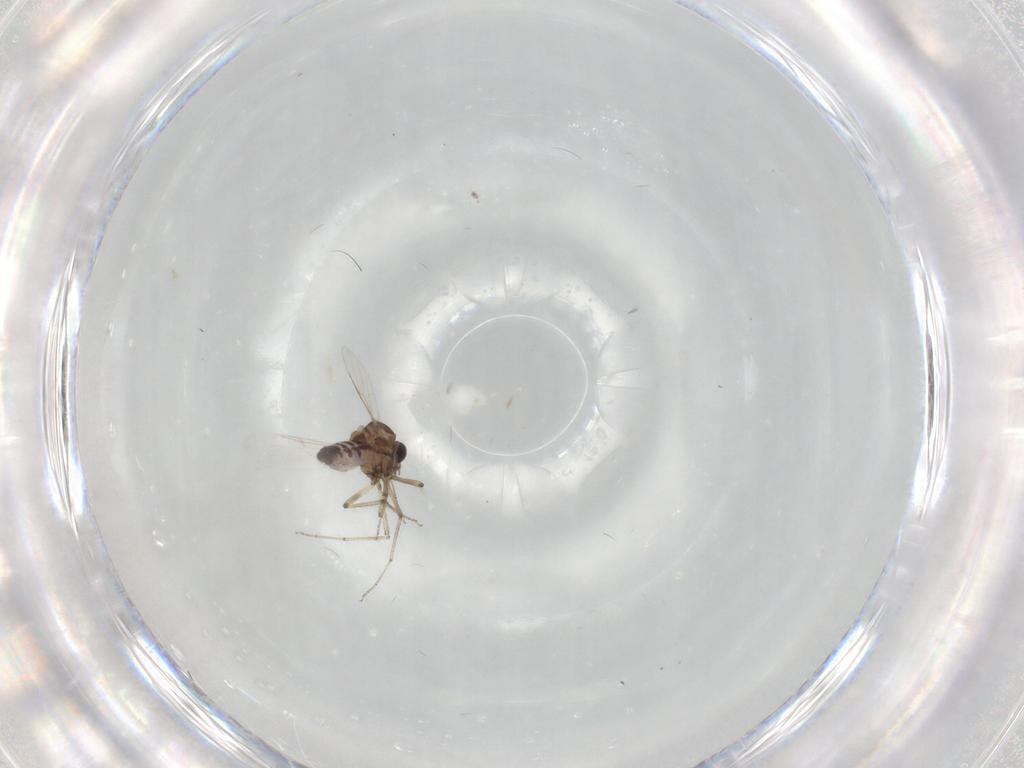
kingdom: Animalia
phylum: Arthropoda
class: Insecta
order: Diptera
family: Ceratopogonidae
